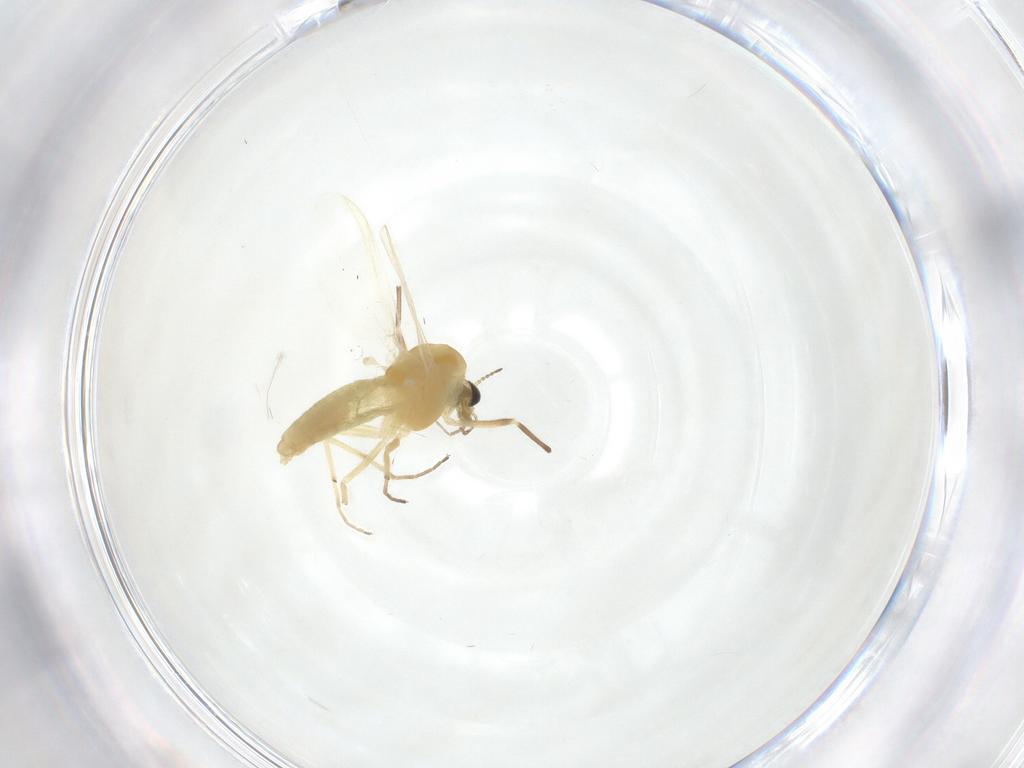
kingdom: Animalia
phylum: Arthropoda
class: Insecta
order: Diptera
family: Chironomidae
